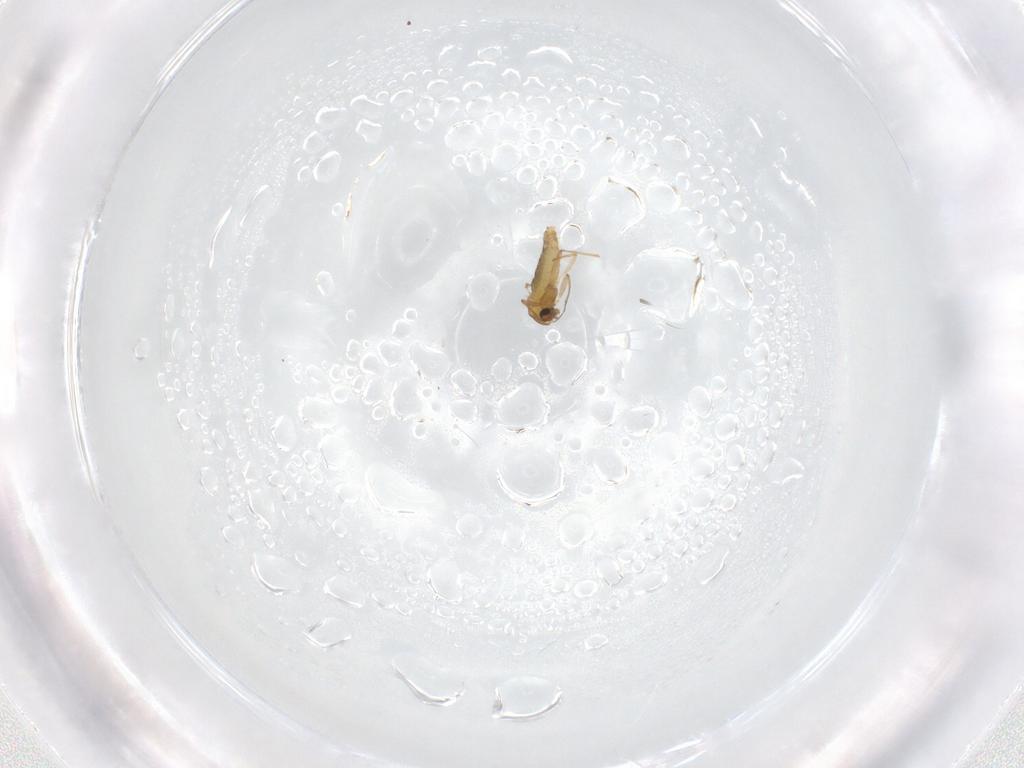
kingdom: Animalia
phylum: Arthropoda
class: Insecta
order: Diptera
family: Chironomidae
